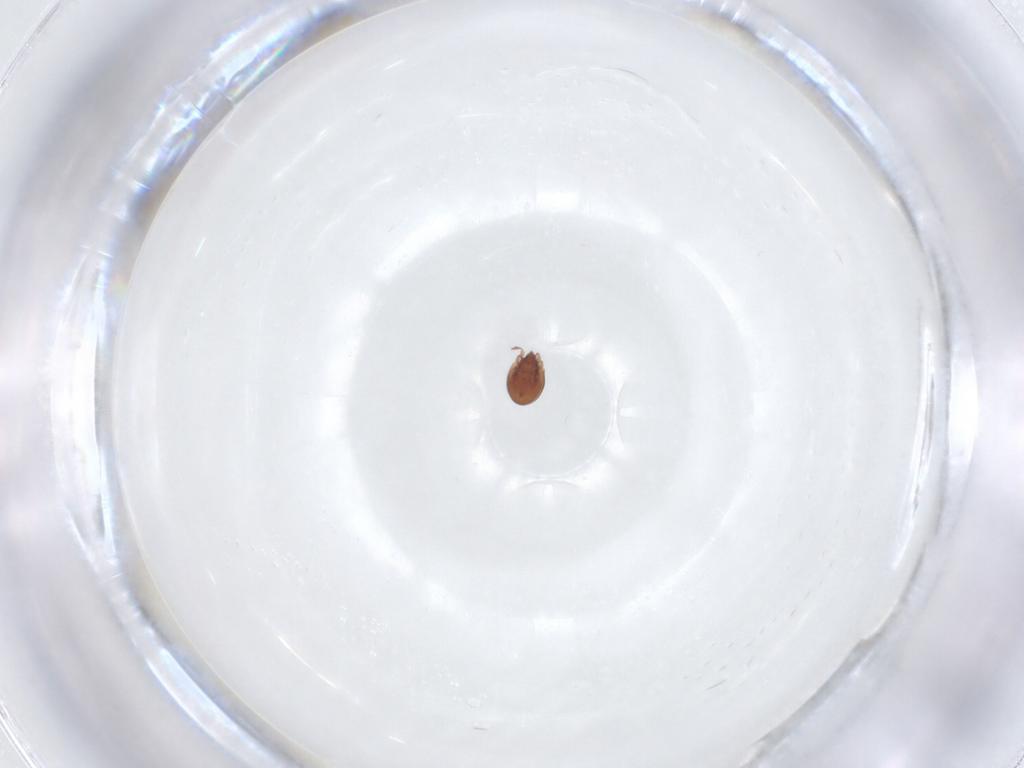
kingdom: Animalia
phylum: Arthropoda
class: Arachnida
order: Sarcoptiformes
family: Scheloribatidae
